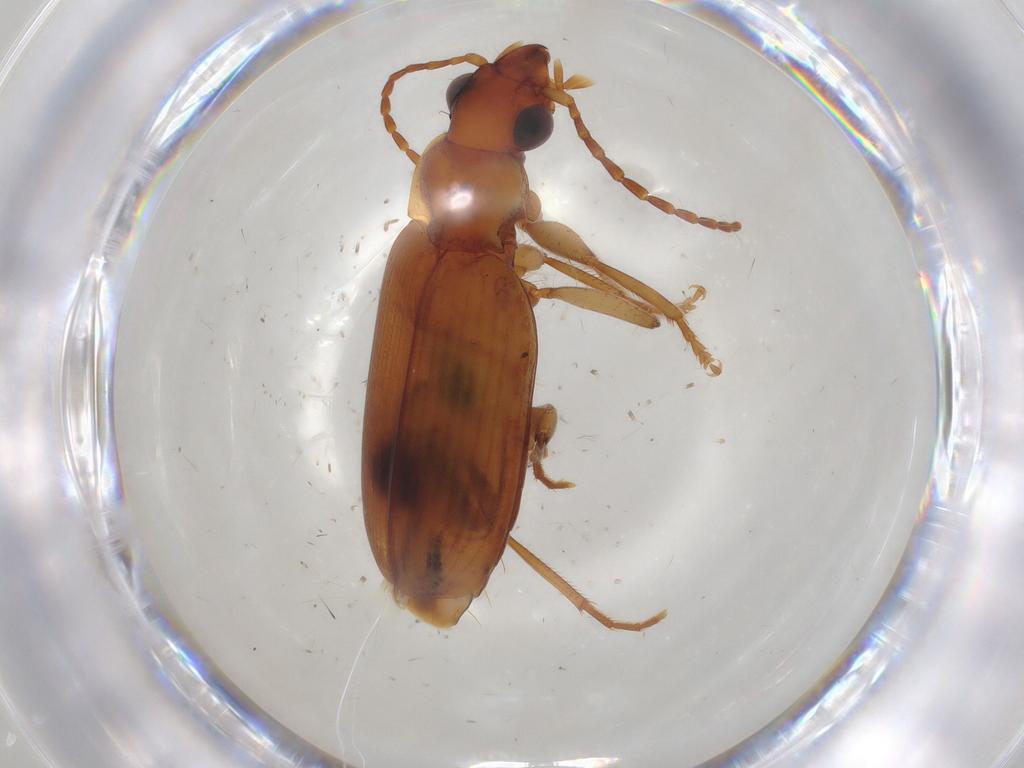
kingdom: Animalia
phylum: Arthropoda
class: Insecta
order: Coleoptera
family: Carabidae
